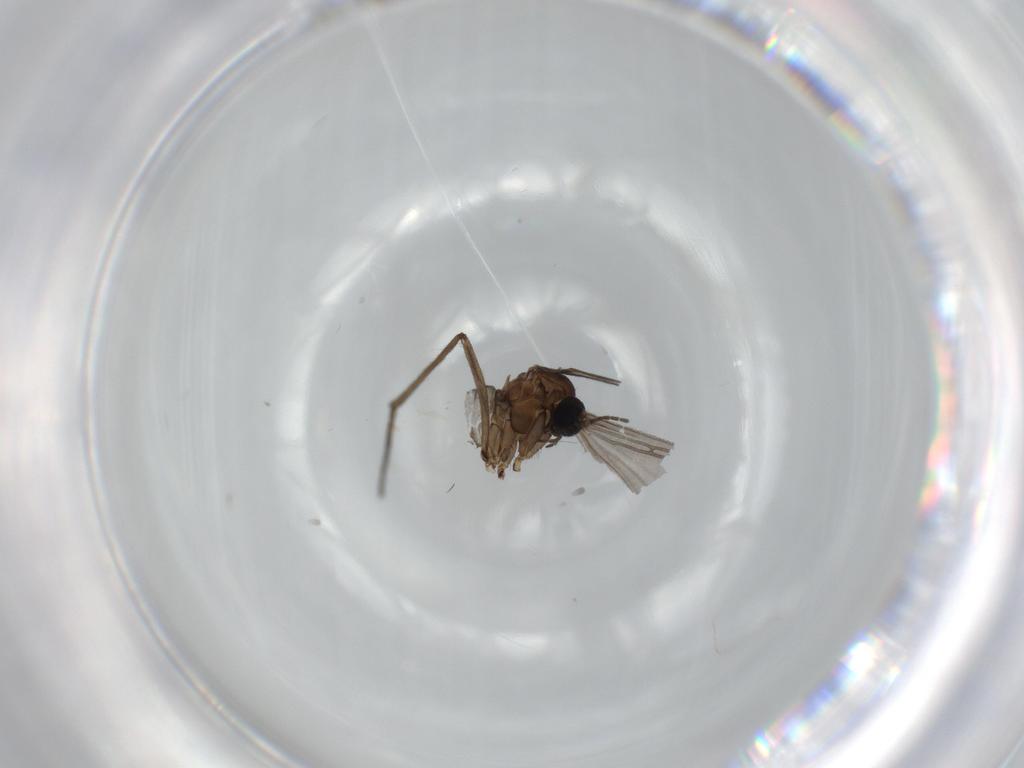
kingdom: Animalia
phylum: Arthropoda
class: Insecta
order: Diptera
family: Sciaridae
